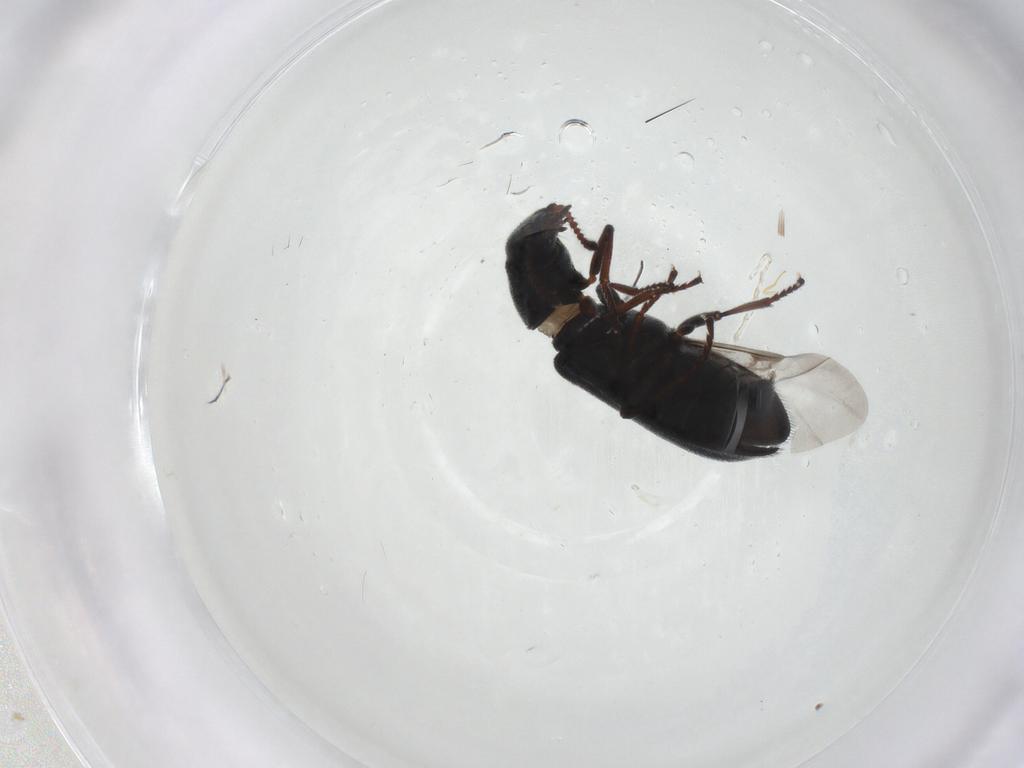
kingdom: Animalia
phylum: Arthropoda
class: Insecta
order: Coleoptera
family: Melyridae
